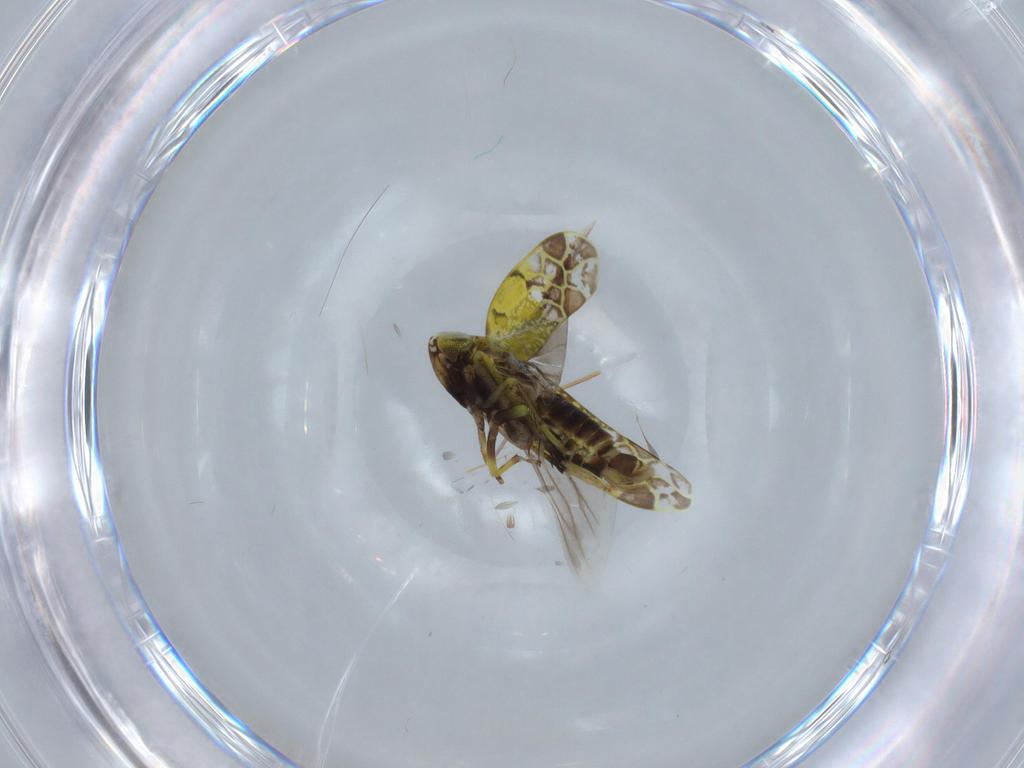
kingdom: Animalia
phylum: Arthropoda
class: Insecta
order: Hemiptera
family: Cicadellidae
